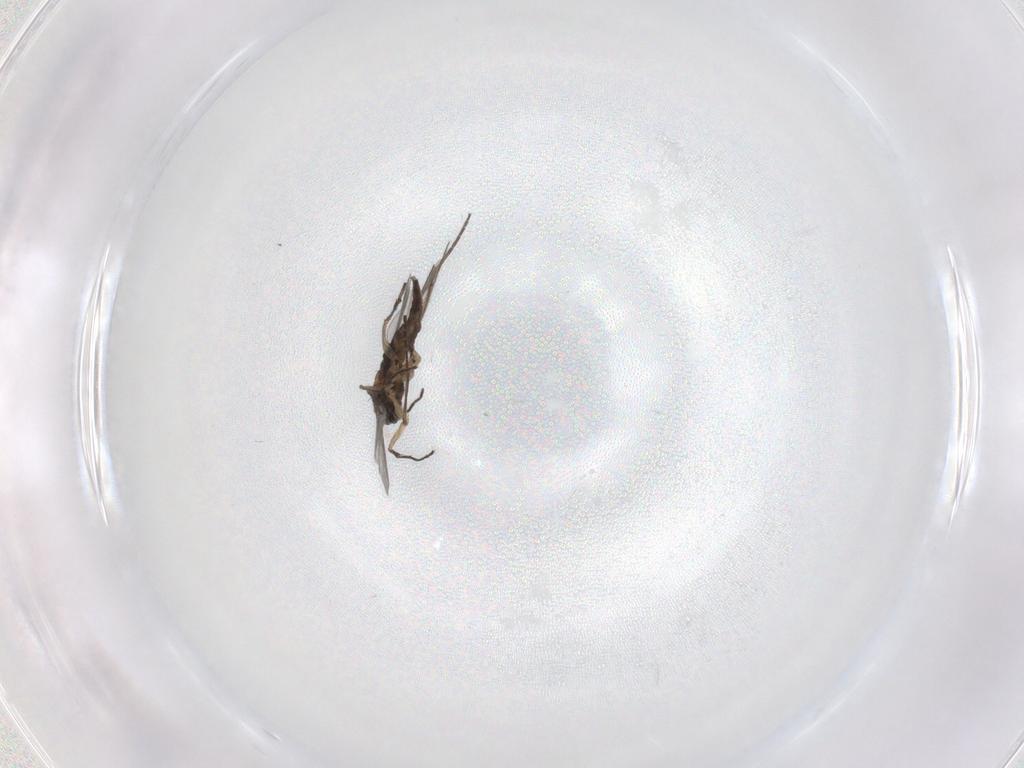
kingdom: Animalia
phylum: Arthropoda
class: Insecta
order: Diptera
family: Sciaridae
